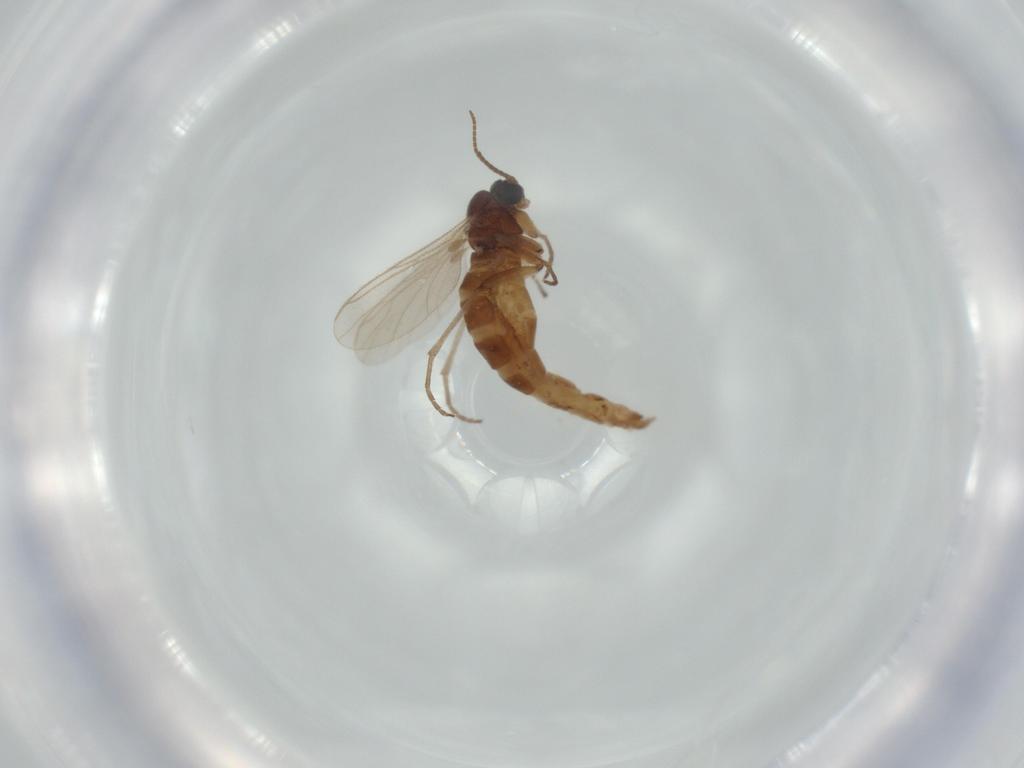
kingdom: Animalia
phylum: Arthropoda
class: Insecta
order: Diptera
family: Sciaridae
